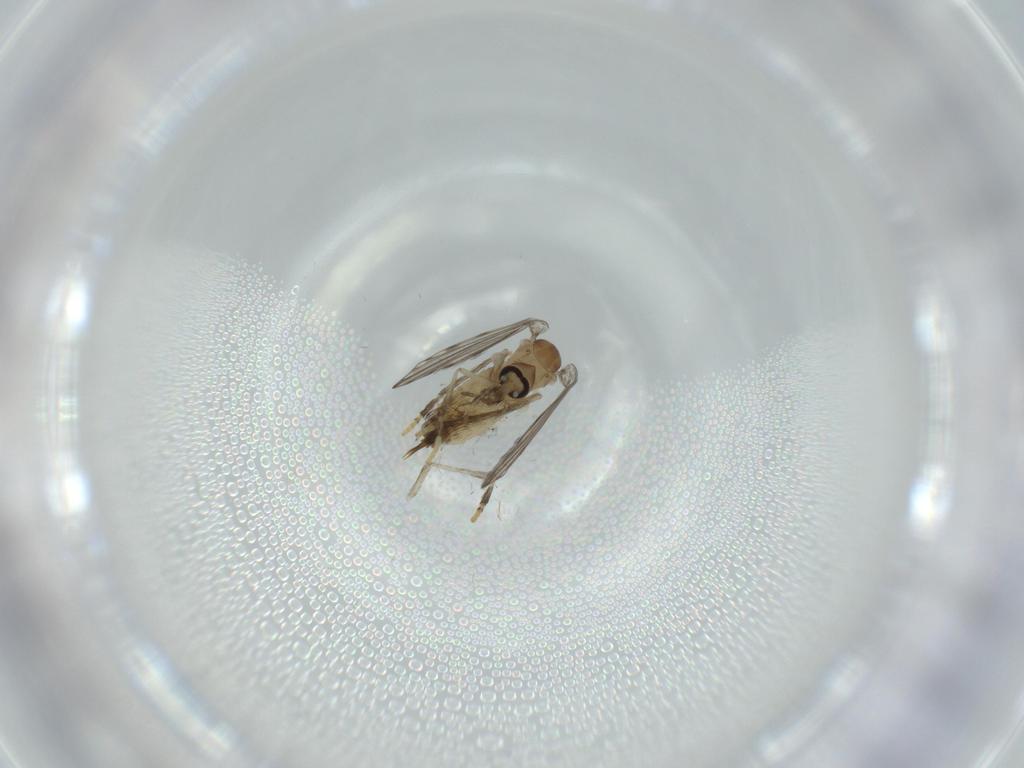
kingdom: Animalia
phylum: Arthropoda
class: Insecta
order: Diptera
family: Psychodidae
